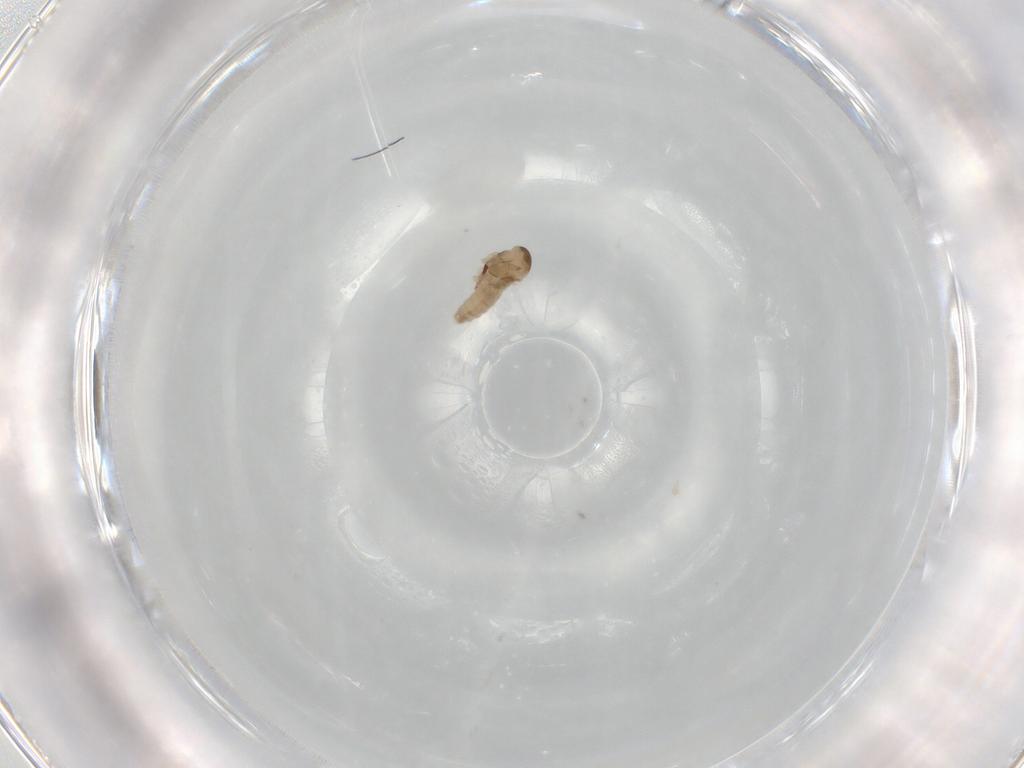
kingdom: Animalia
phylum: Arthropoda
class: Insecta
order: Diptera
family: Cecidomyiidae
